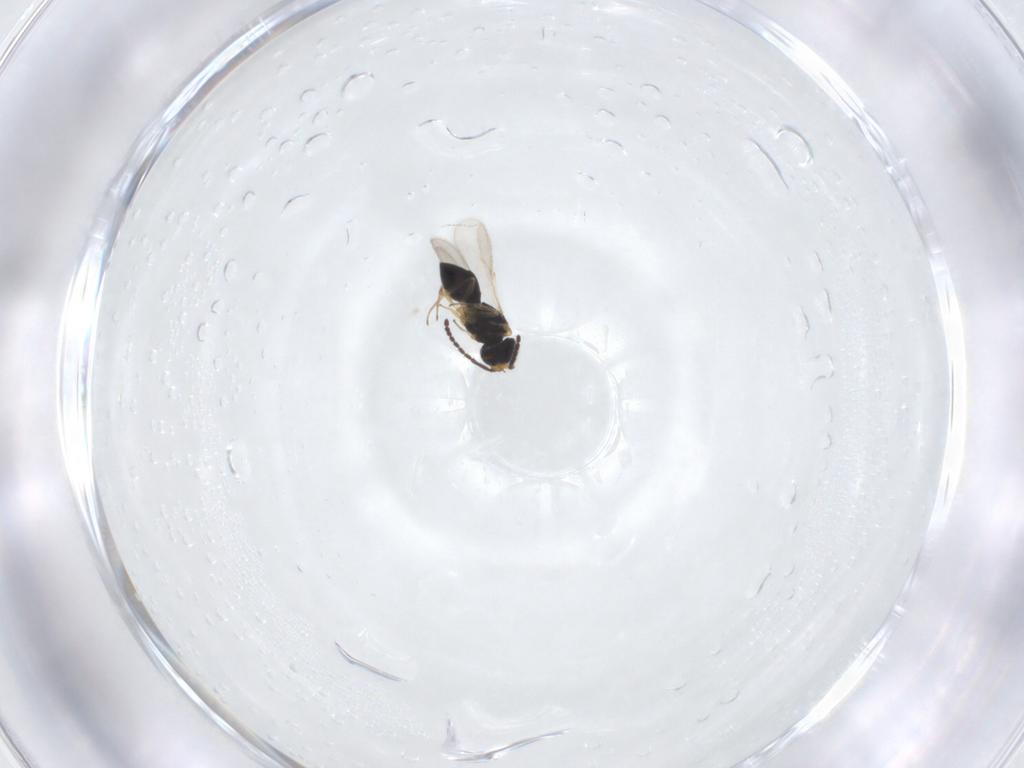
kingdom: Animalia
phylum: Arthropoda
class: Insecta
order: Hymenoptera
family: Scelionidae
